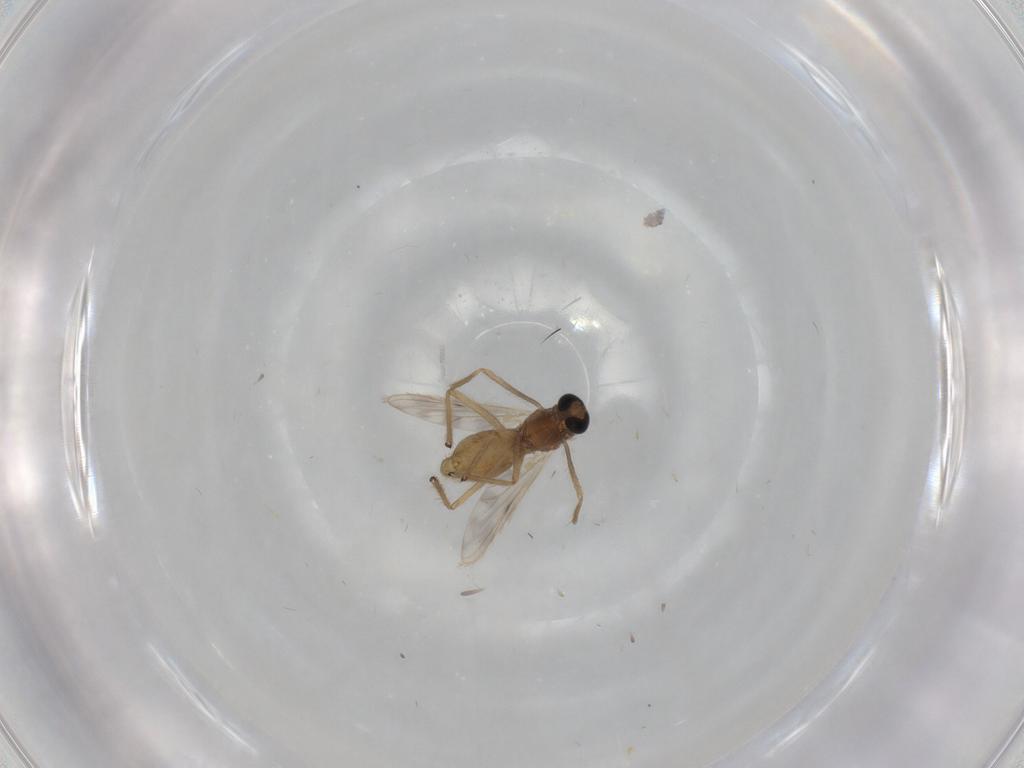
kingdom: Animalia
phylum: Arthropoda
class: Insecta
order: Diptera
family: Chironomidae
